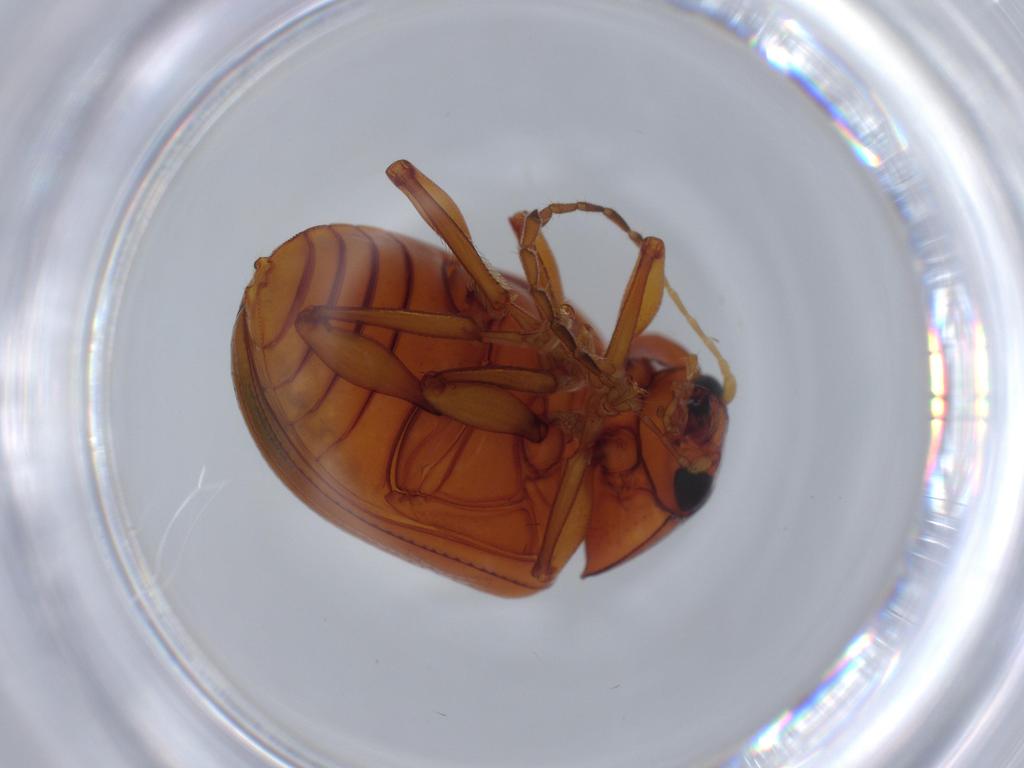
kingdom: Animalia
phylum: Arthropoda
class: Insecta
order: Coleoptera
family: Chrysomelidae
